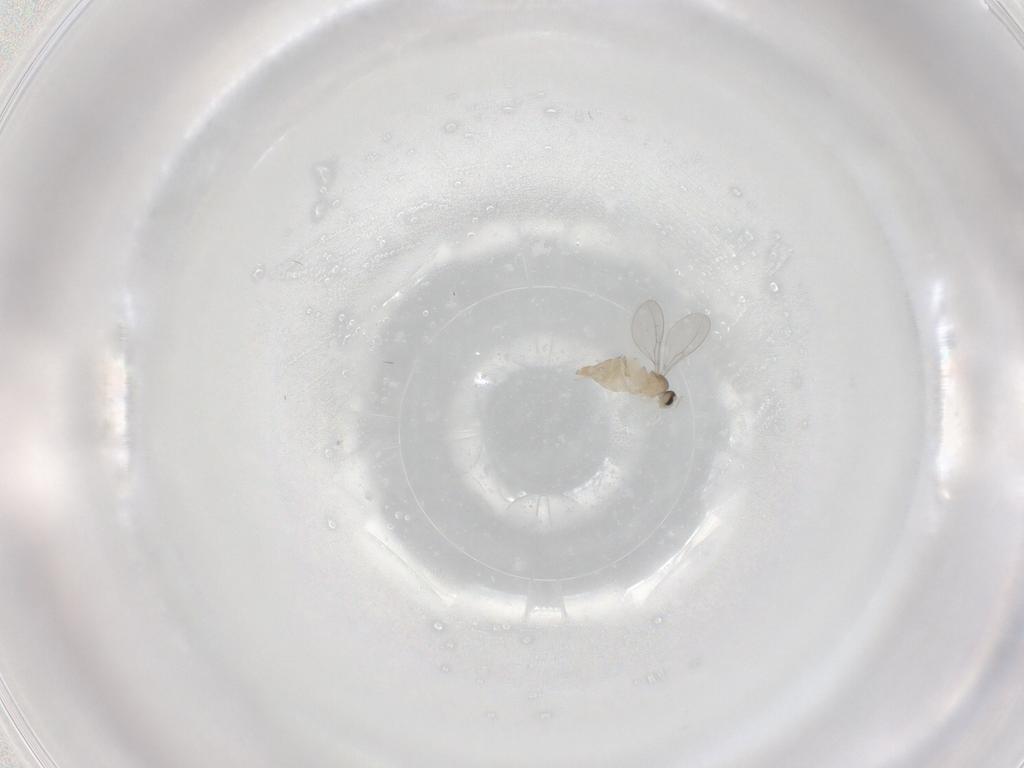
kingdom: Animalia
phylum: Arthropoda
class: Insecta
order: Diptera
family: Cecidomyiidae
